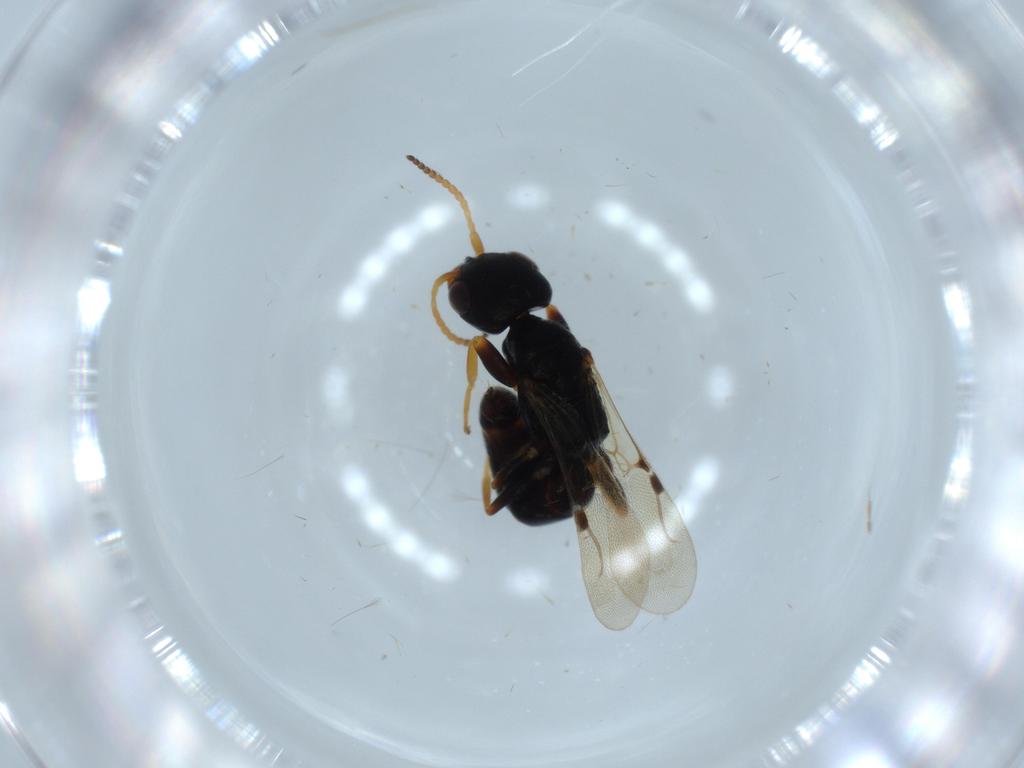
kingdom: Animalia
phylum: Arthropoda
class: Insecta
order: Hymenoptera
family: Bethylidae
